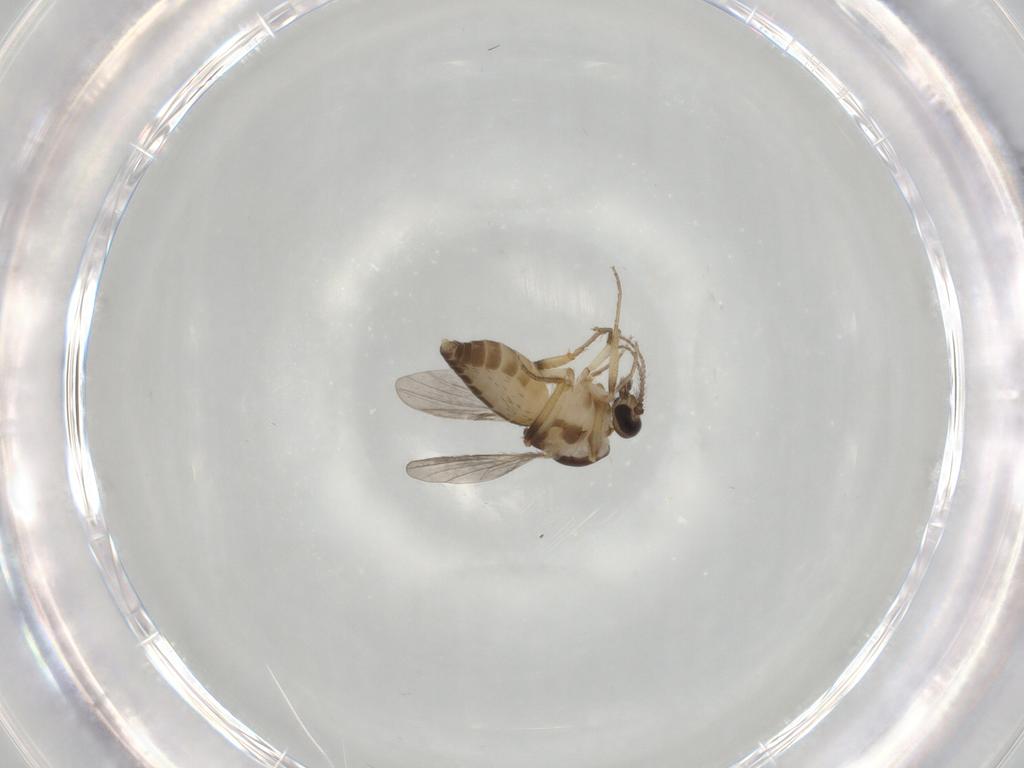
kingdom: Animalia
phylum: Arthropoda
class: Insecta
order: Diptera
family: Ceratopogonidae
